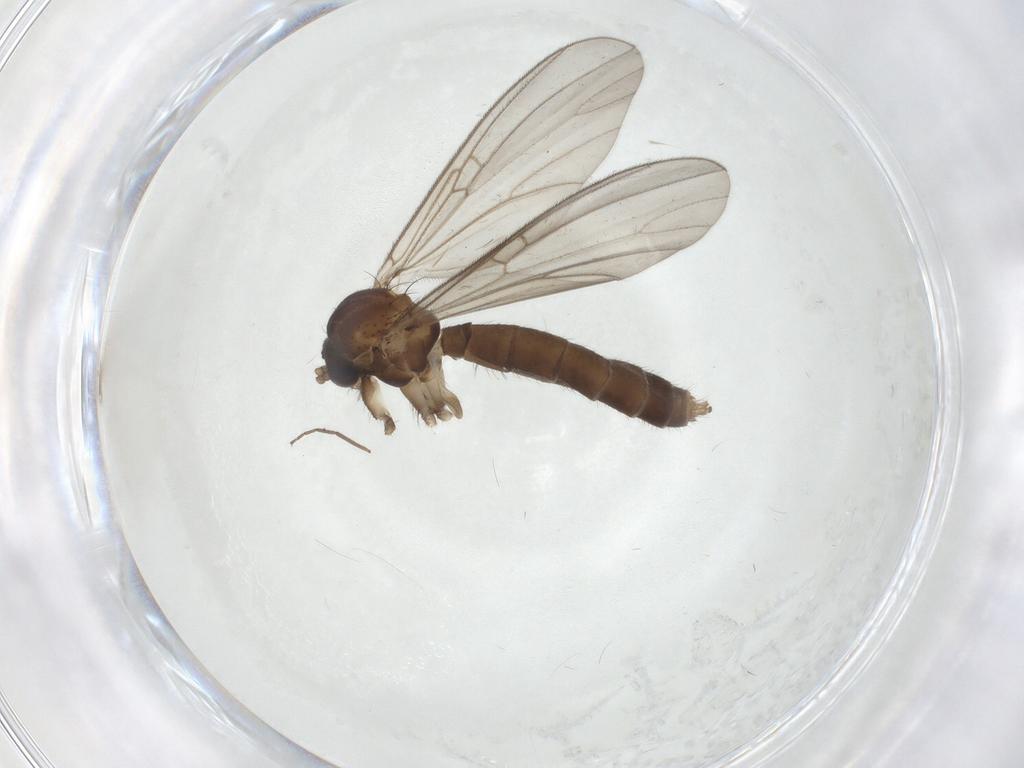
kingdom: Animalia
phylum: Arthropoda
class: Insecta
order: Diptera
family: Mycetophilidae
